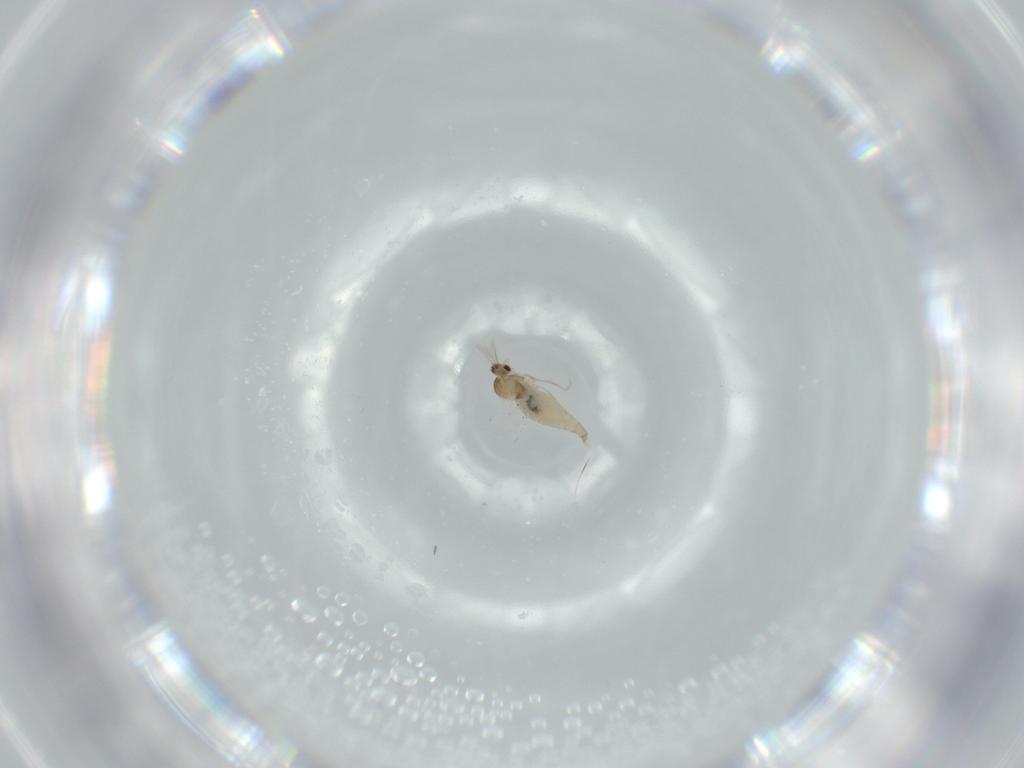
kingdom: Animalia
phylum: Arthropoda
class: Insecta
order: Diptera
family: Cecidomyiidae
